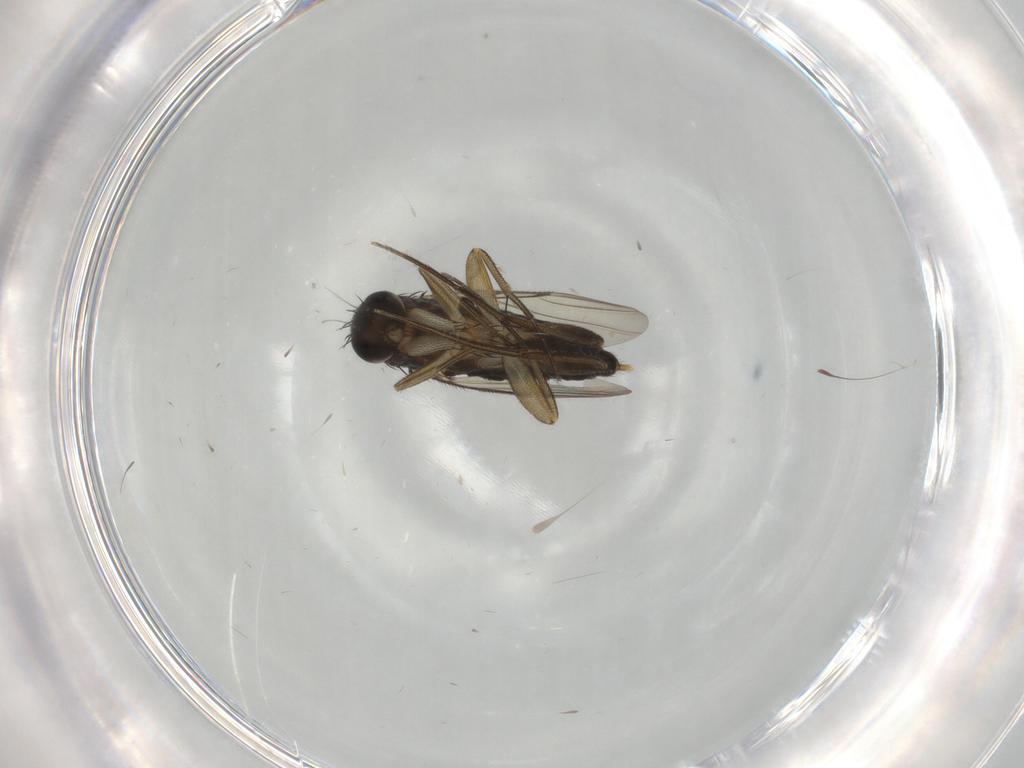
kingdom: Animalia
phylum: Arthropoda
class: Insecta
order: Diptera
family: Phoridae
